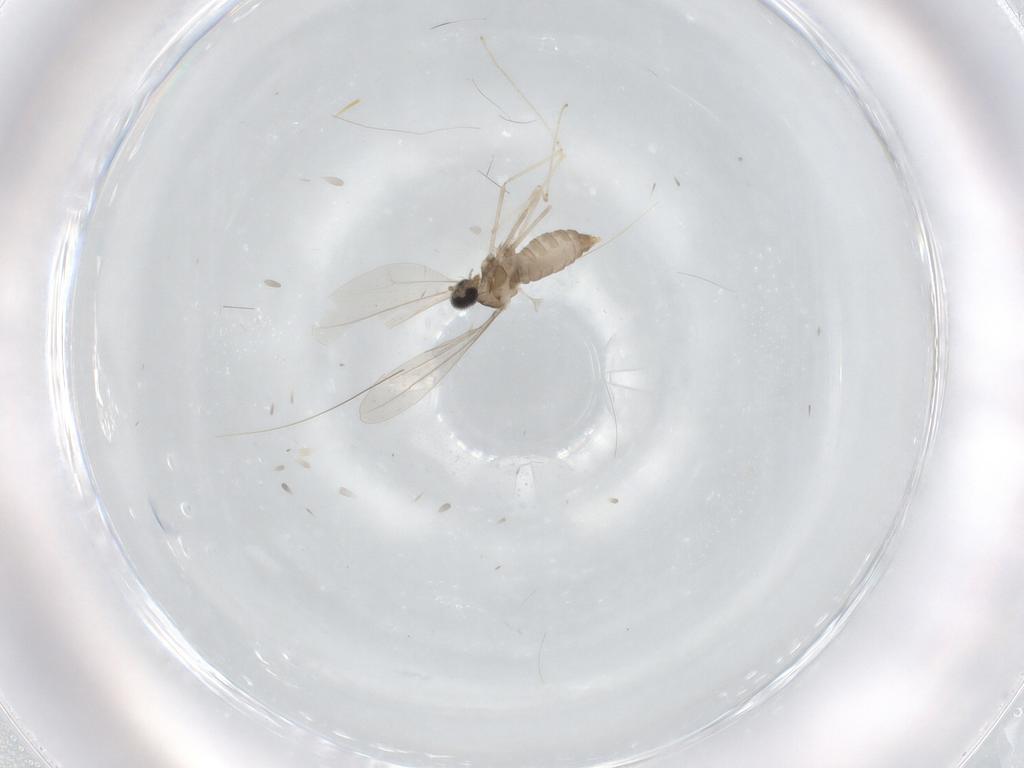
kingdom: Animalia
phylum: Arthropoda
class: Insecta
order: Diptera
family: Cecidomyiidae
